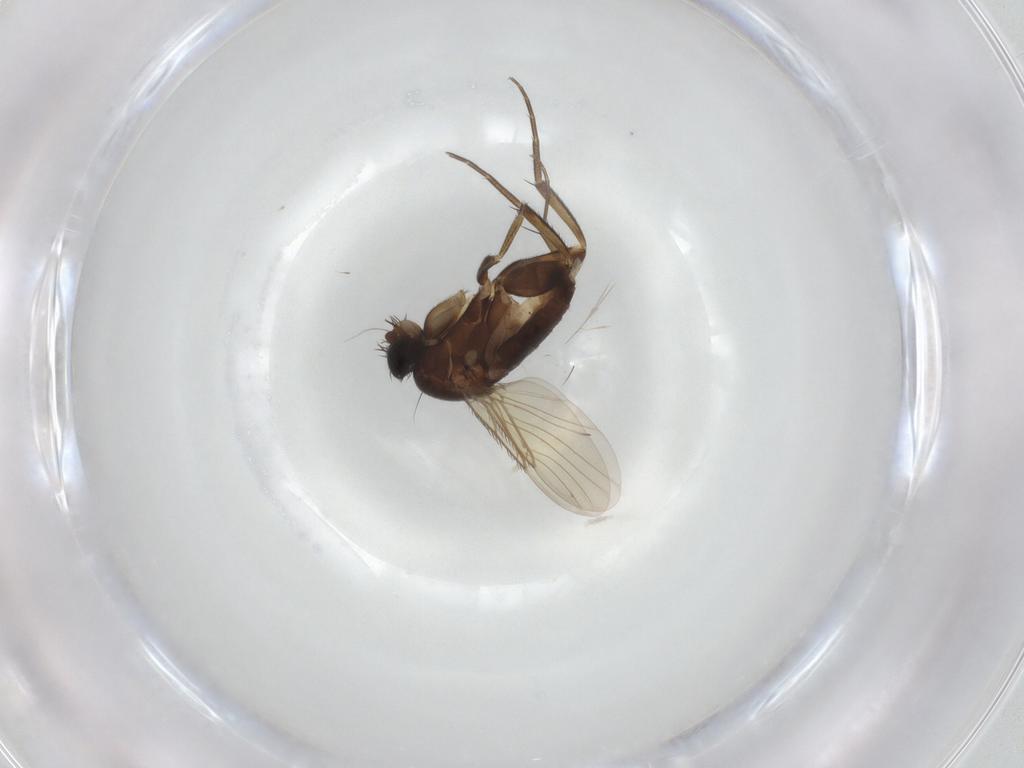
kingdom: Animalia
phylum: Arthropoda
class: Insecta
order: Diptera
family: Phoridae
